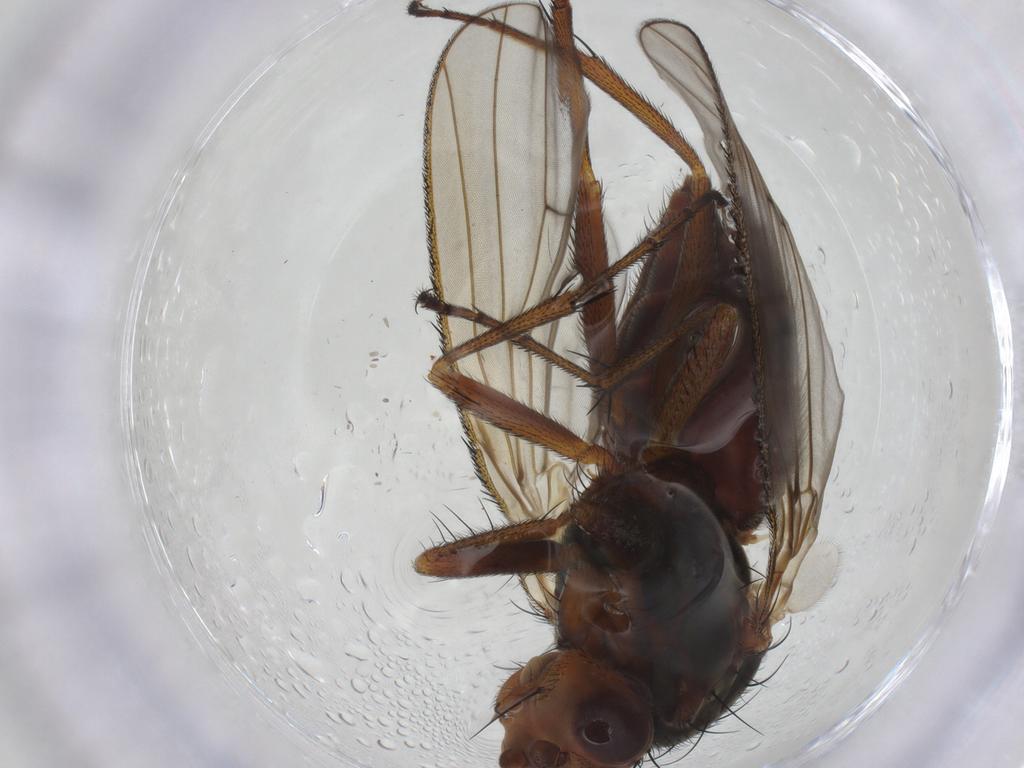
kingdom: Animalia
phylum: Arthropoda
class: Insecta
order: Diptera
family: Heleomyzidae
